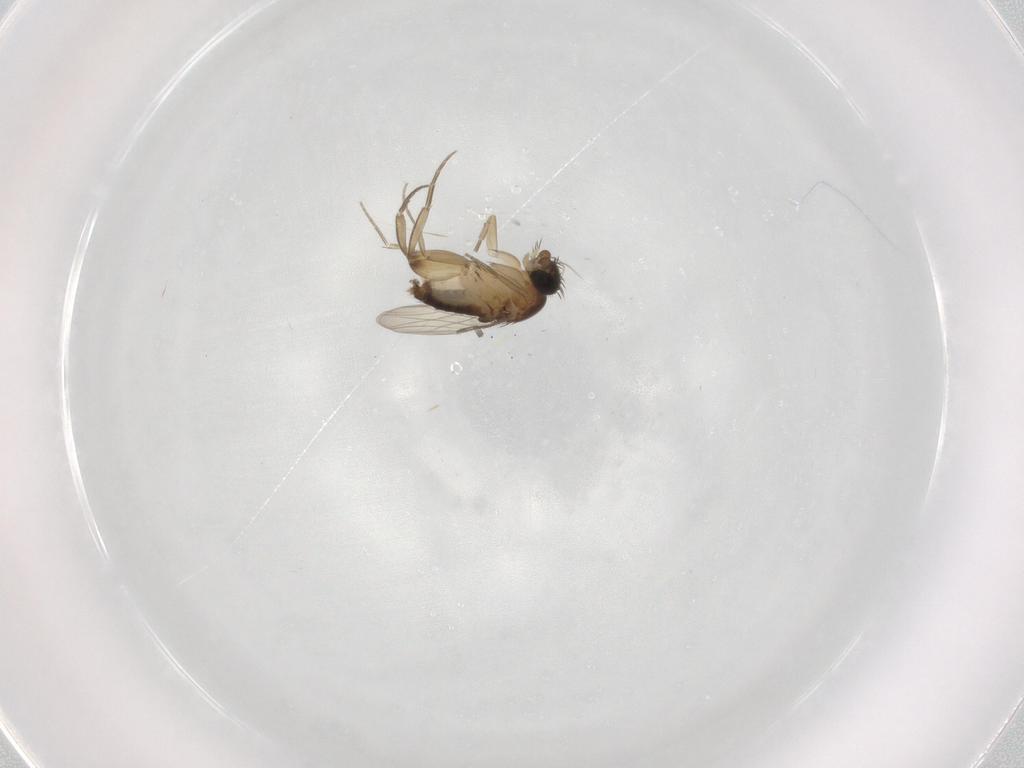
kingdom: Animalia
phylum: Arthropoda
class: Insecta
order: Diptera
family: Phoridae
